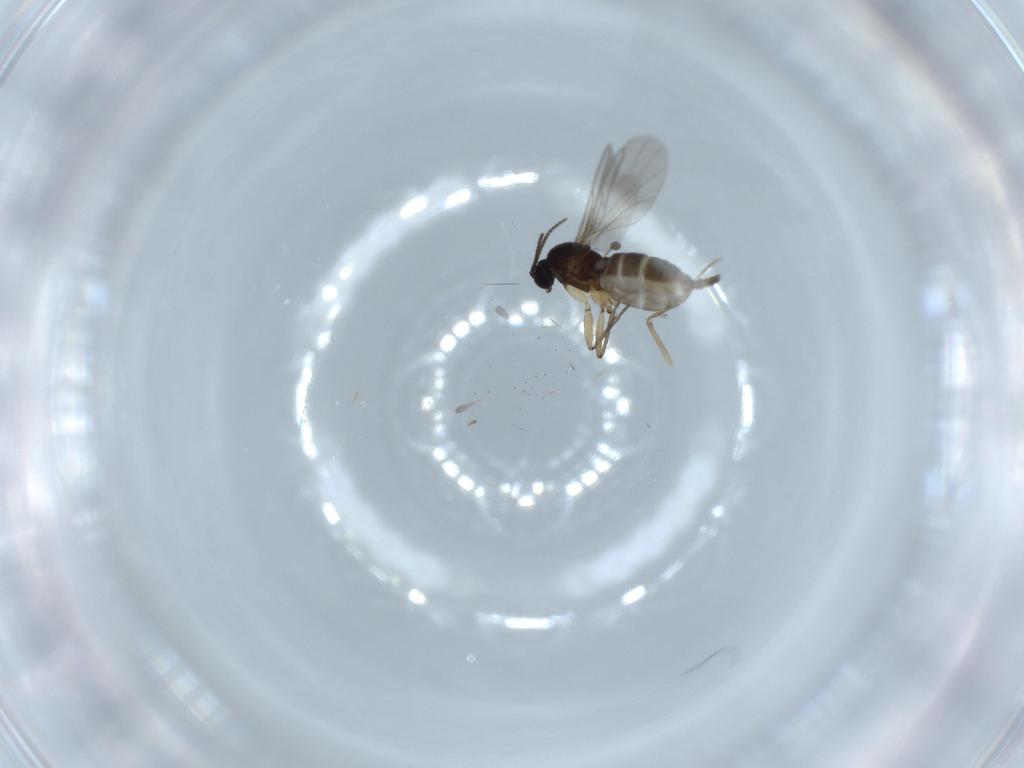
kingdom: Animalia
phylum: Arthropoda
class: Insecta
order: Diptera
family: Sciaridae
